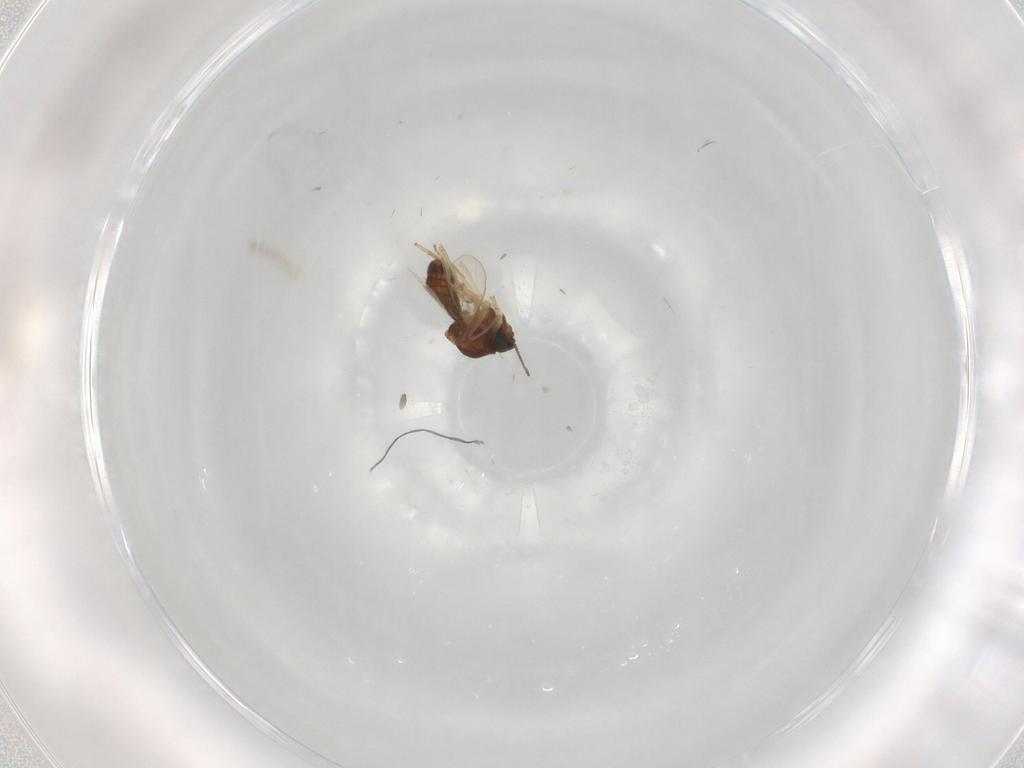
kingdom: Animalia
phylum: Arthropoda
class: Insecta
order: Diptera
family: Ceratopogonidae
